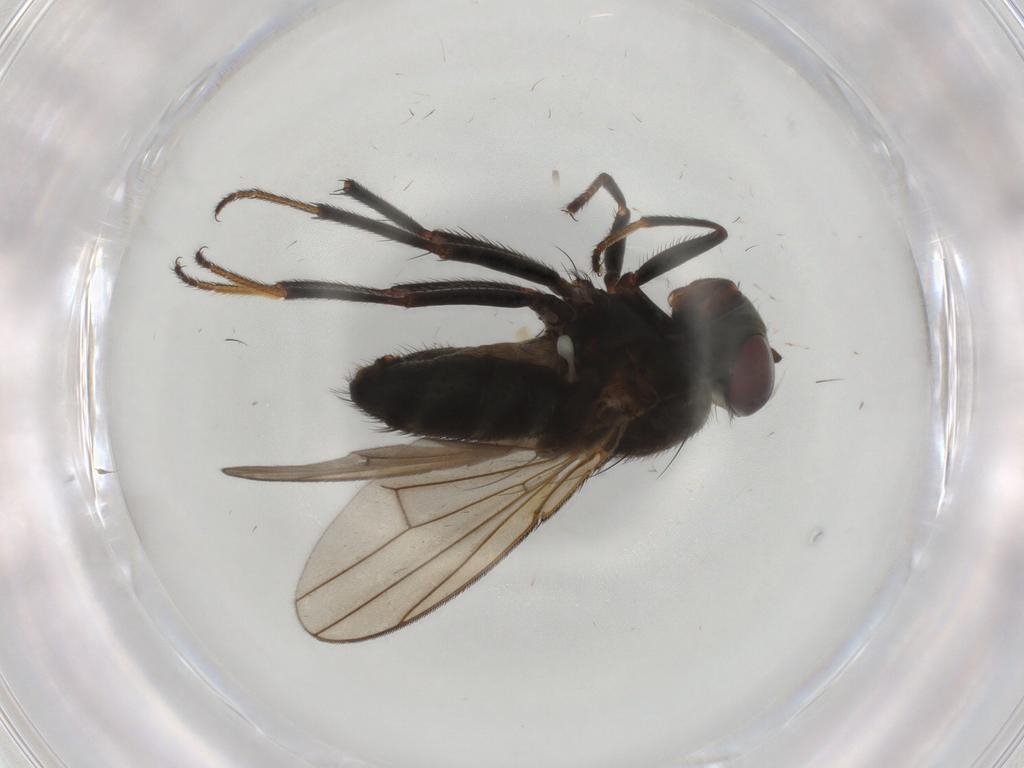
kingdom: Animalia
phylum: Arthropoda
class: Insecta
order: Diptera
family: Ephydridae
